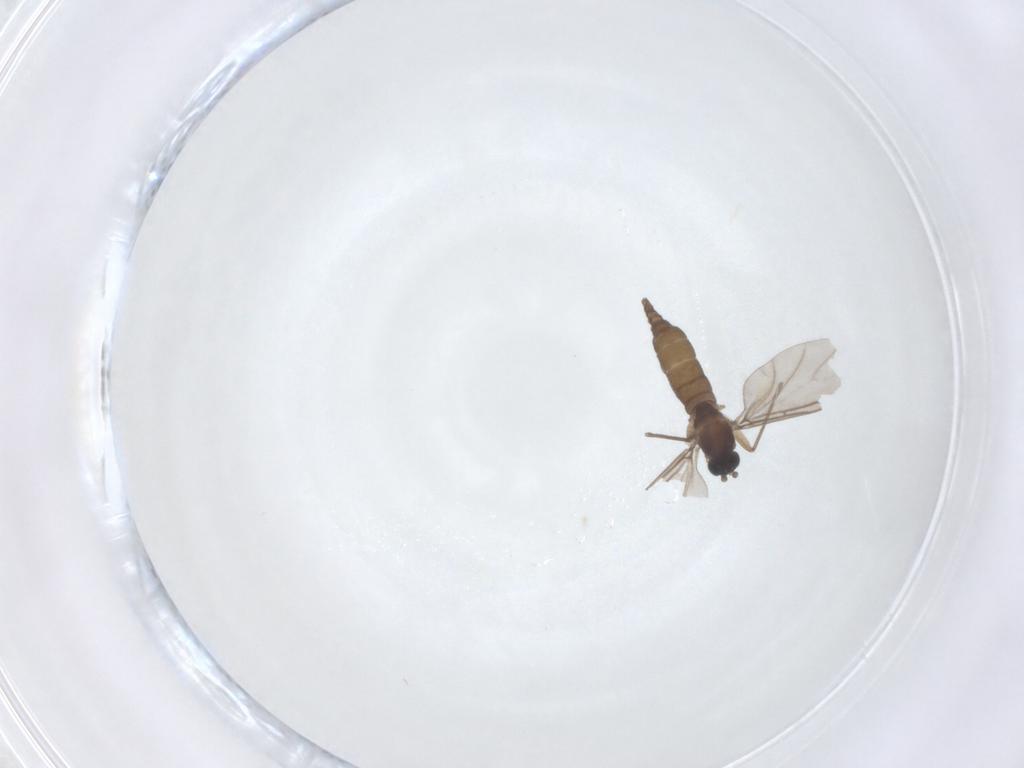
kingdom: Animalia
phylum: Arthropoda
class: Insecta
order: Diptera
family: Sciaridae
